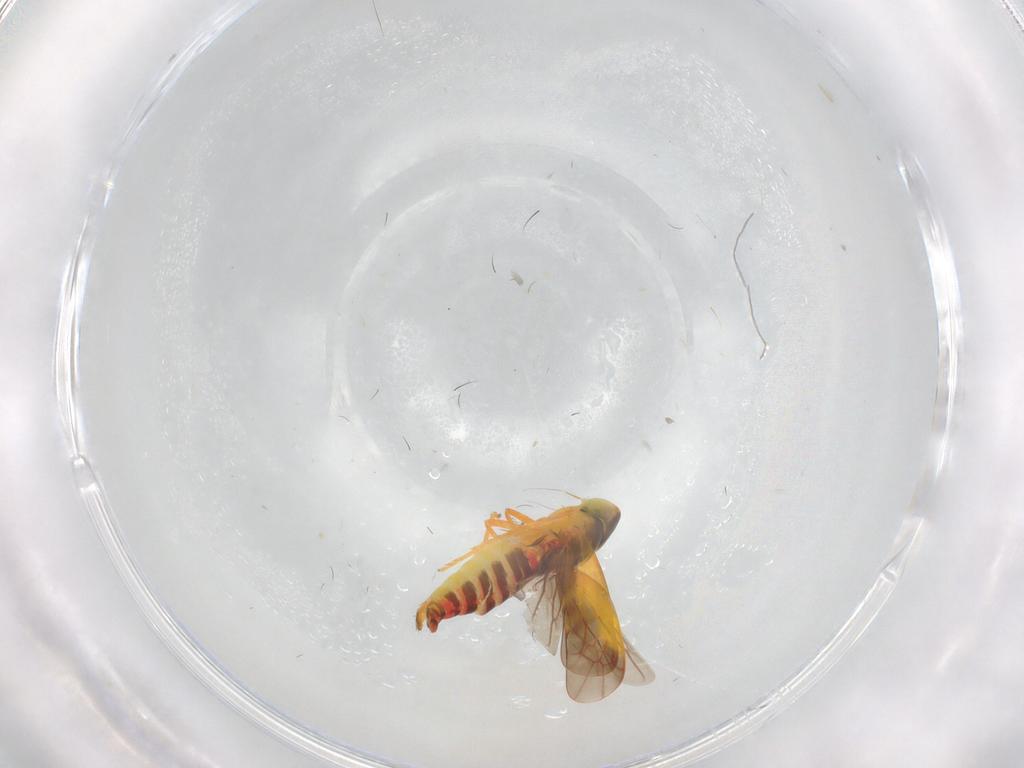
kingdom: Animalia
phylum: Arthropoda
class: Insecta
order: Hemiptera
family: Cicadellidae
